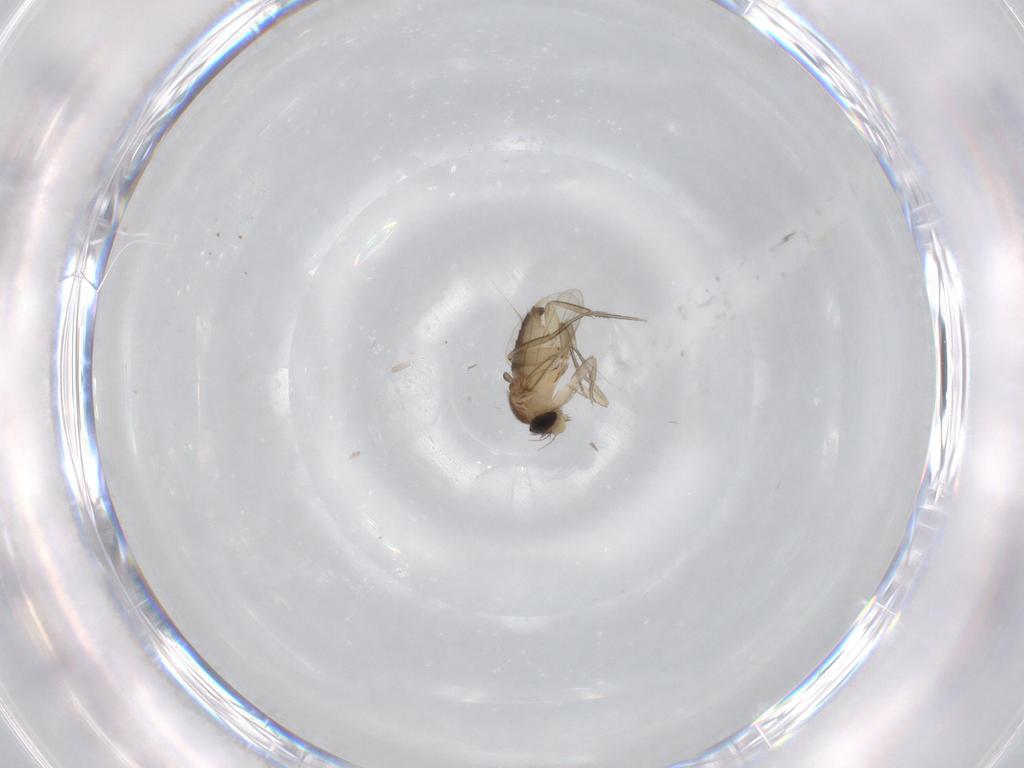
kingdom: Animalia
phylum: Arthropoda
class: Insecta
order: Diptera
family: Phoridae
